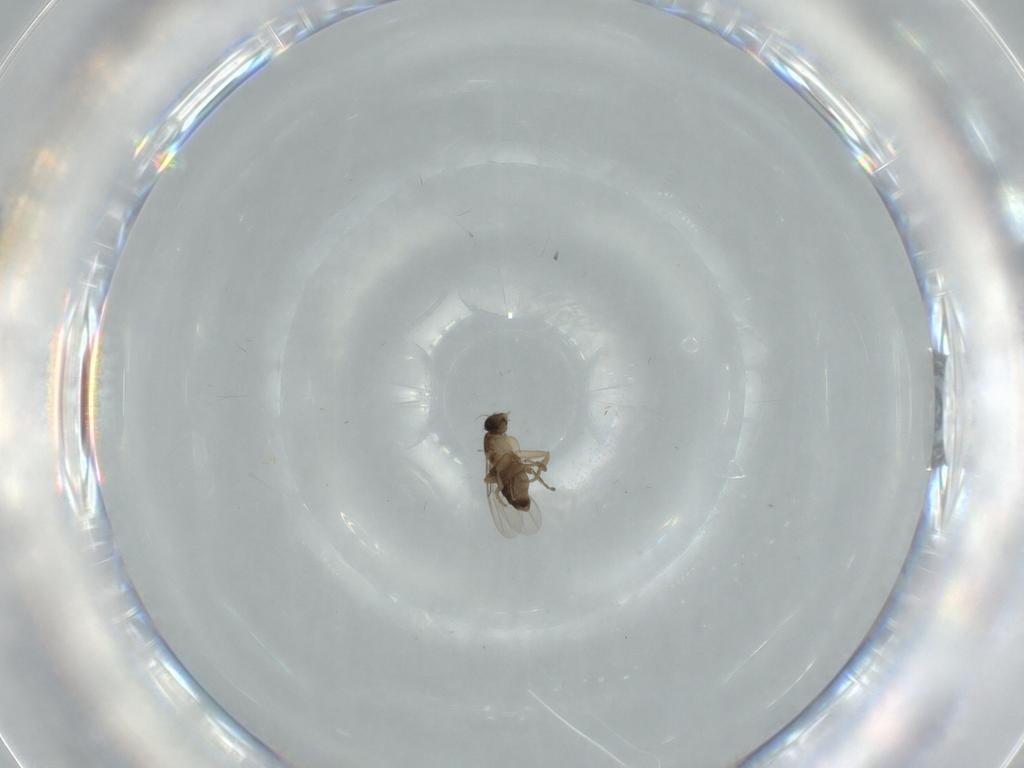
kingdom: Animalia
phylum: Arthropoda
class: Insecta
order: Diptera
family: Phoridae
